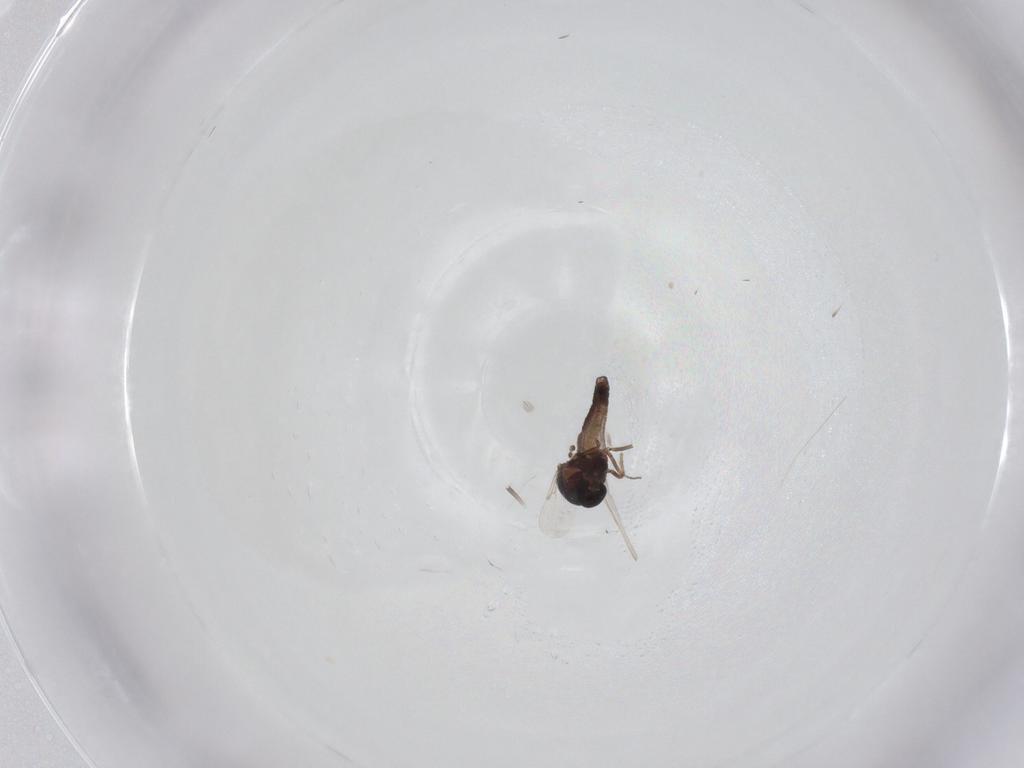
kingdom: Animalia
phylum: Arthropoda
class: Insecta
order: Diptera
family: Ceratopogonidae
